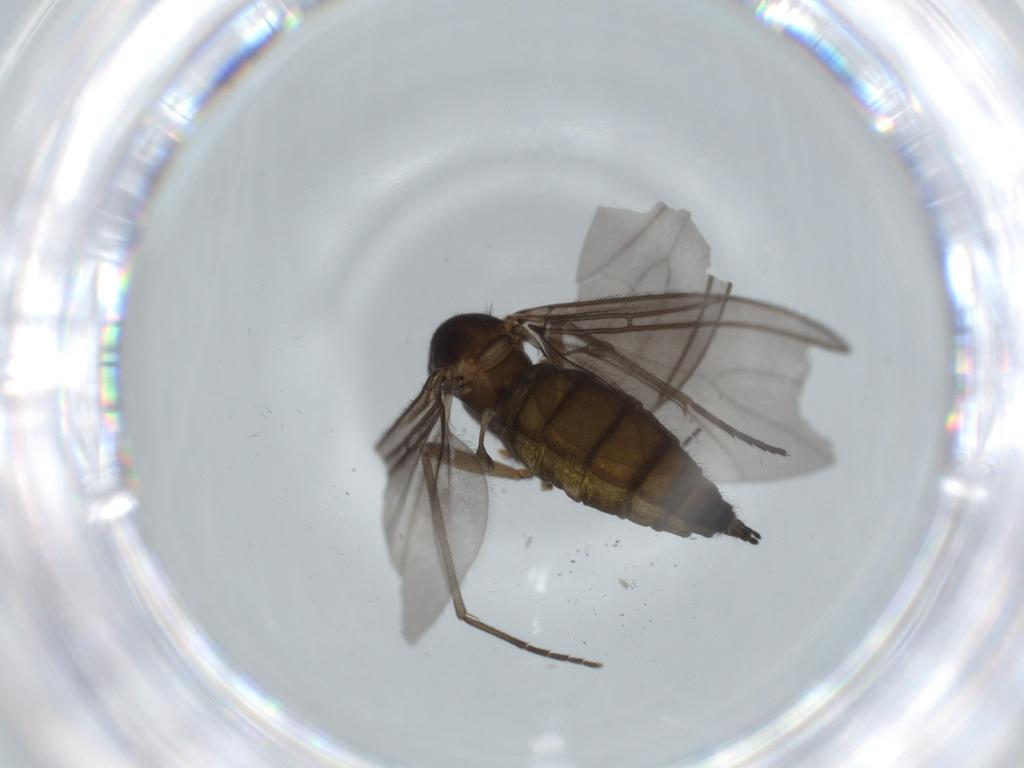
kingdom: Animalia
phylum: Arthropoda
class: Insecta
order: Diptera
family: Sciaridae
